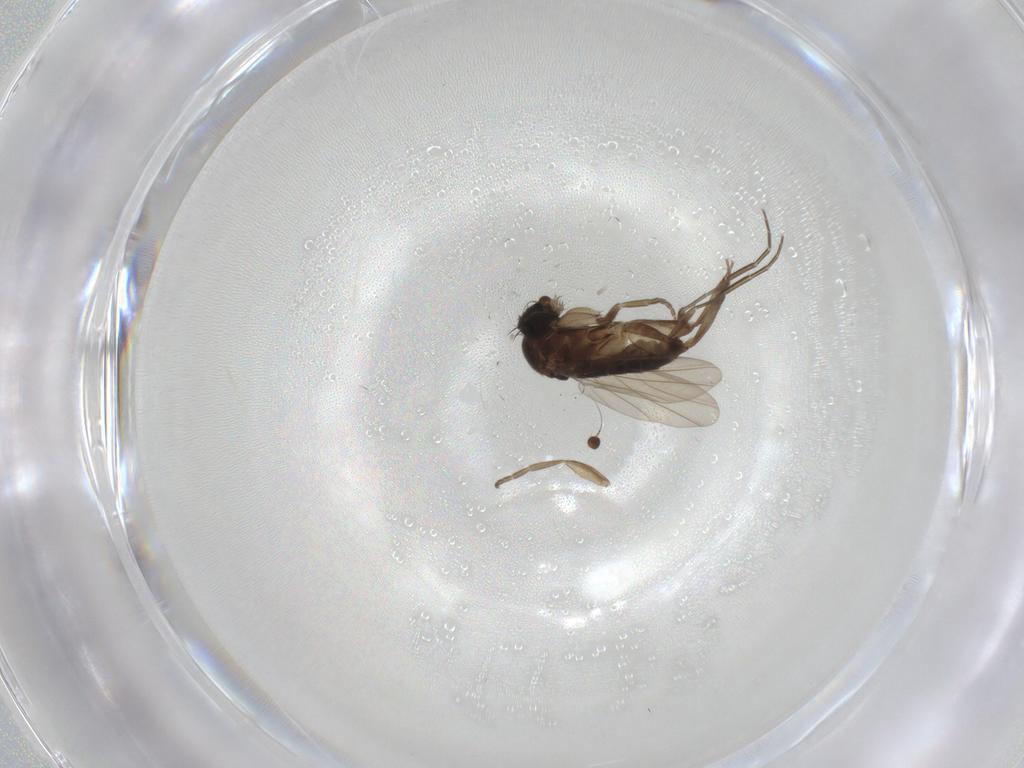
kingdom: Animalia
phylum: Arthropoda
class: Insecta
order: Diptera
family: Phoridae
